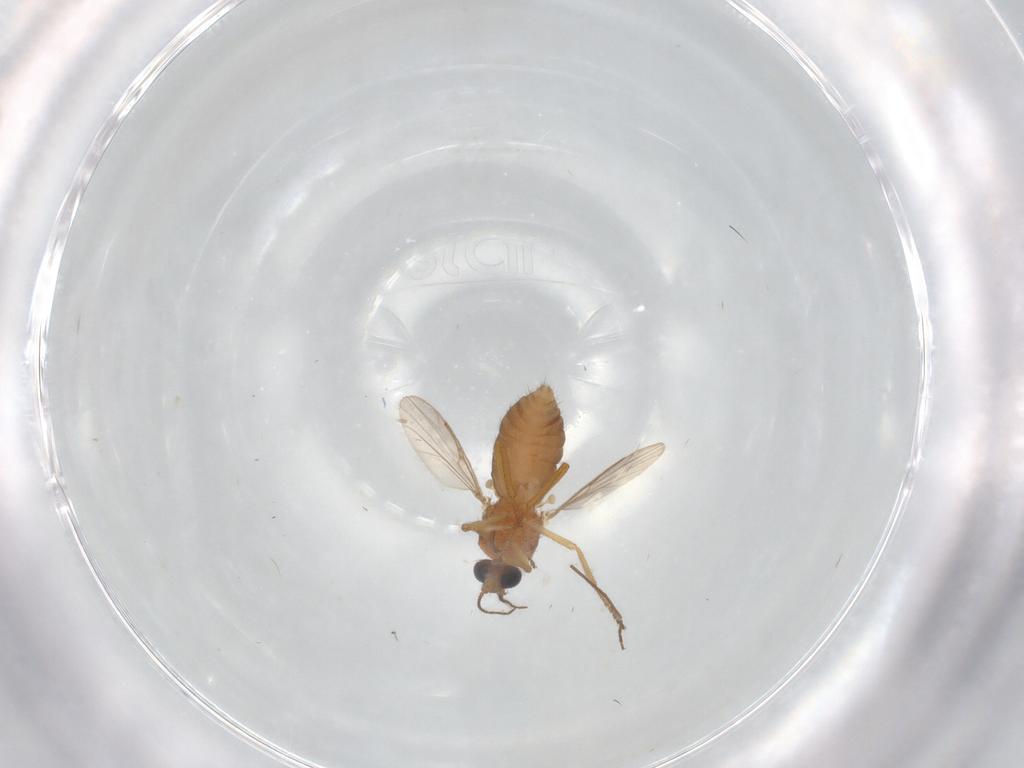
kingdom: Animalia
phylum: Arthropoda
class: Insecta
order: Diptera
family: Ceratopogonidae
